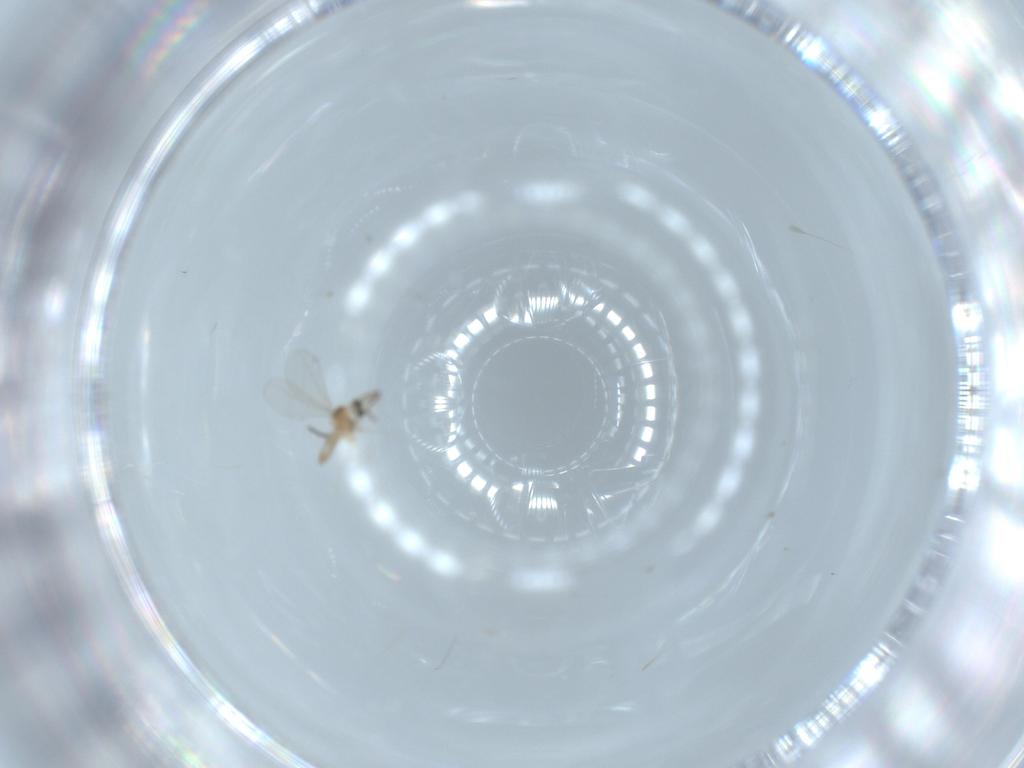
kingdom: Animalia
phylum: Arthropoda
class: Insecta
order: Diptera
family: Cecidomyiidae
